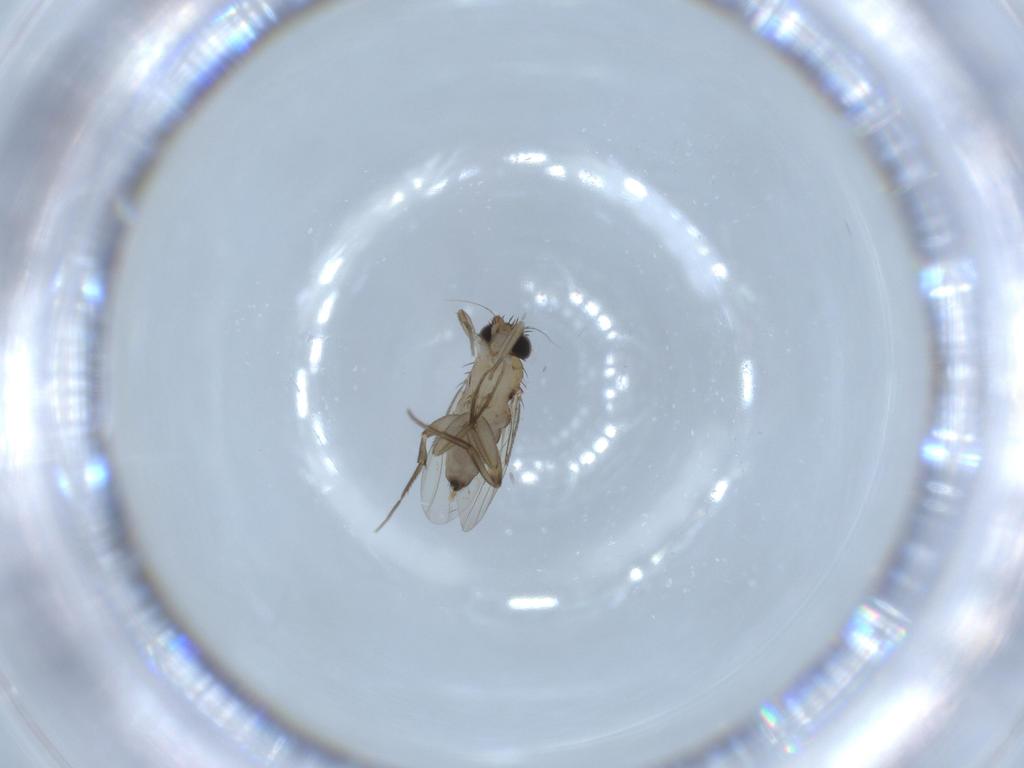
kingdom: Animalia
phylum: Arthropoda
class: Insecta
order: Diptera
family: Phoridae
